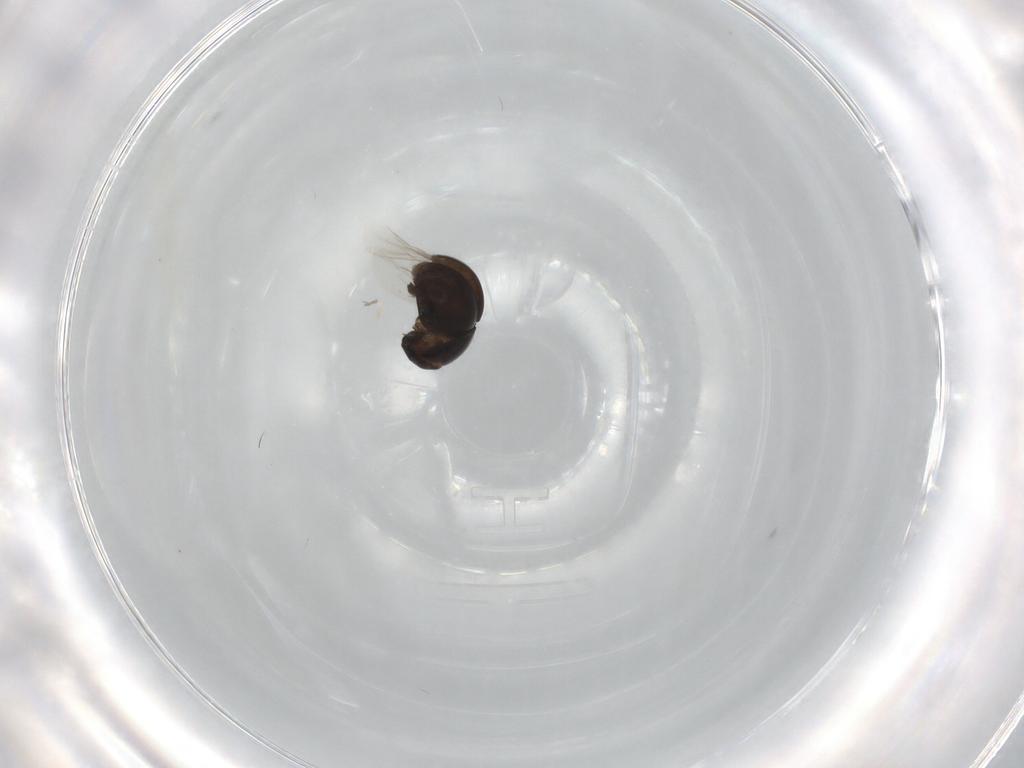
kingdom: Animalia
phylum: Arthropoda
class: Insecta
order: Coleoptera
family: Cybocephalidae
